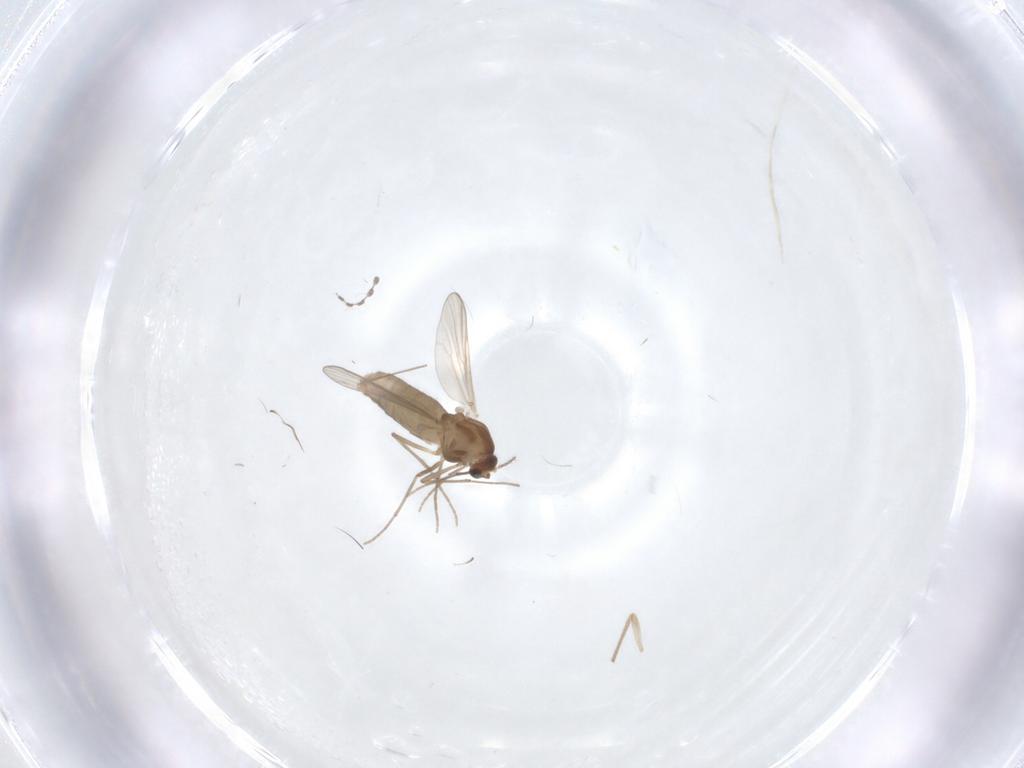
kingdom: Animalia
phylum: Arthropoda
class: Insecta
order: Diptera
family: Chironomidae
